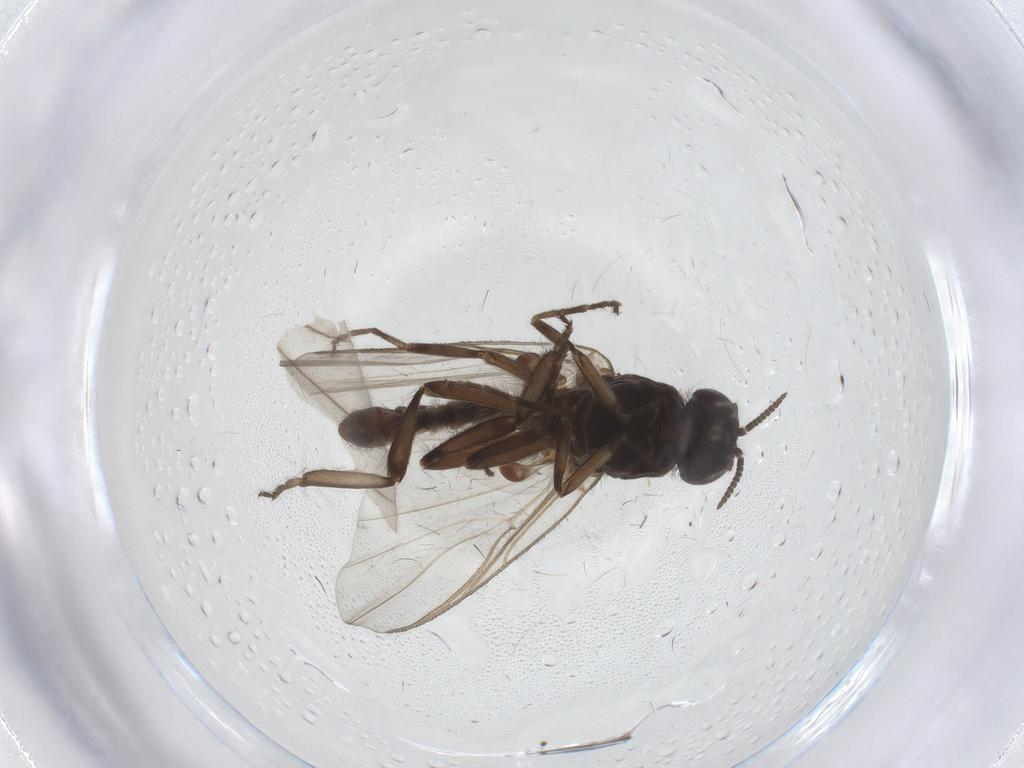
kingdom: Animalia
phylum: Arthropoda
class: Insecta
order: Diptera
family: Simuliidae
